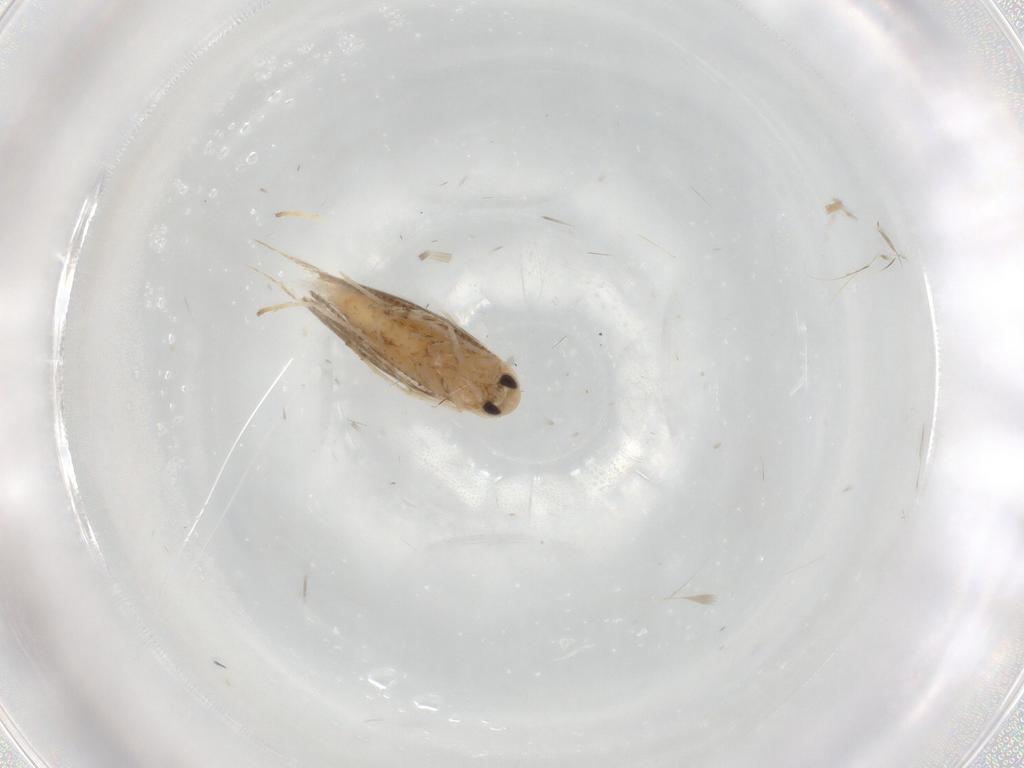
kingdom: Animalia
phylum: Arthropoda
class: Insecta
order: Lepidoptera
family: Gracillariidae
